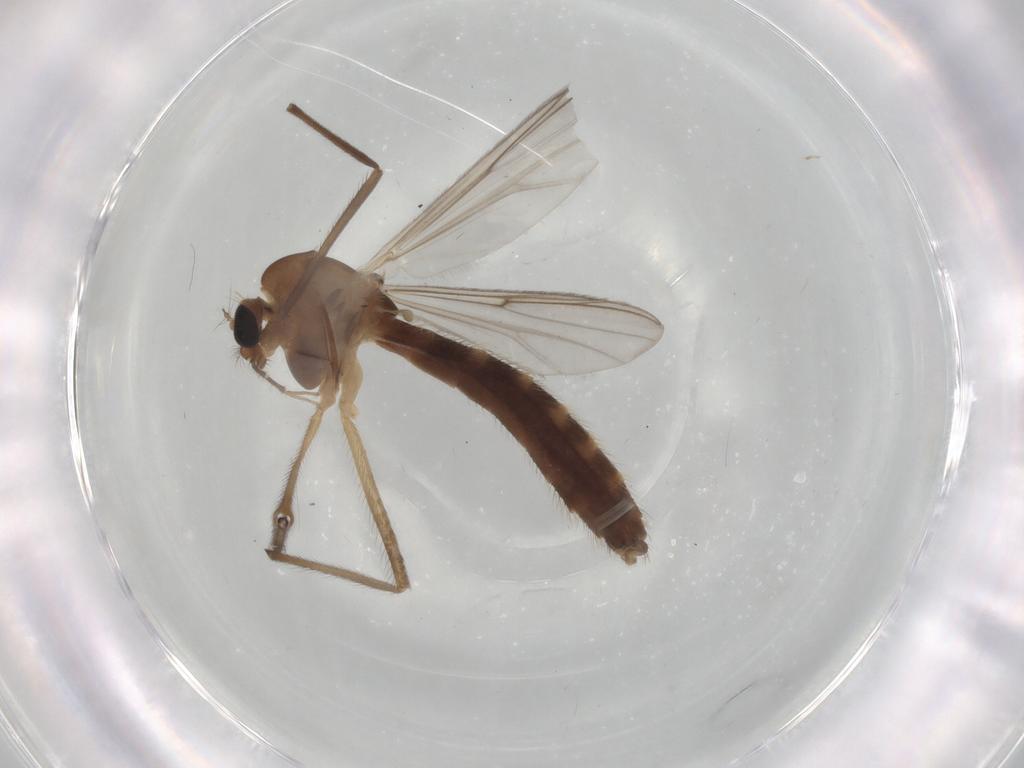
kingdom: Animalia
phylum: Arthropoda
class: Insecta
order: Diptera
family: Chironomidae
